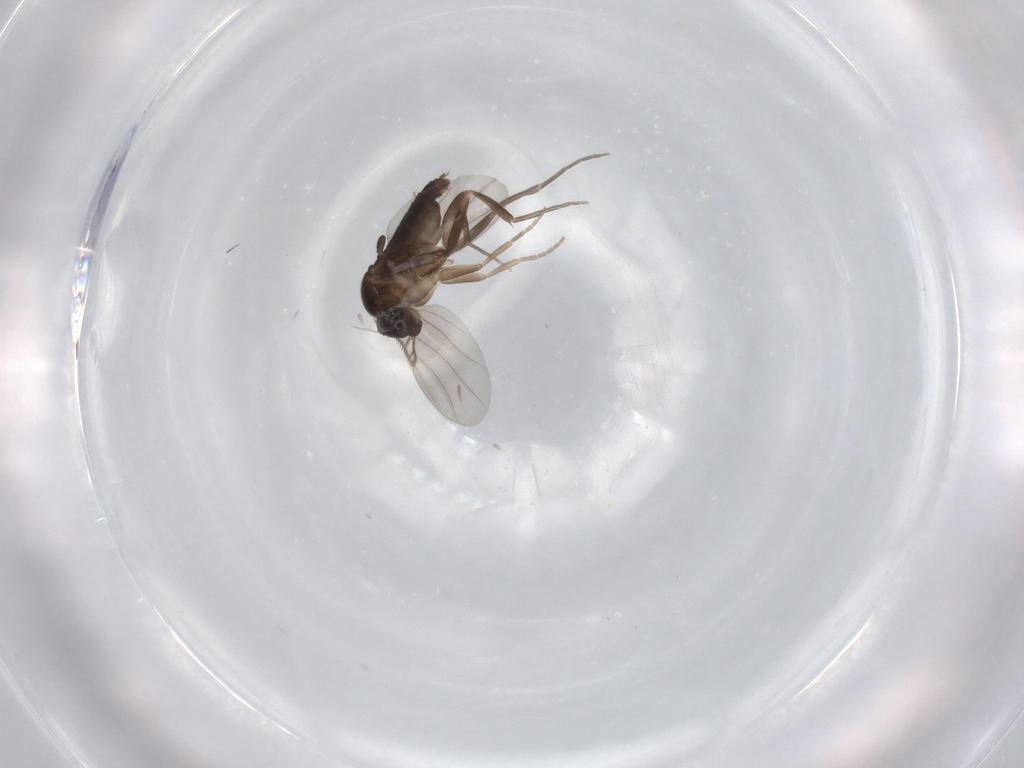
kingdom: Animalia
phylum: Arthropoda
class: Insecta
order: Diptera
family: Phoridae
